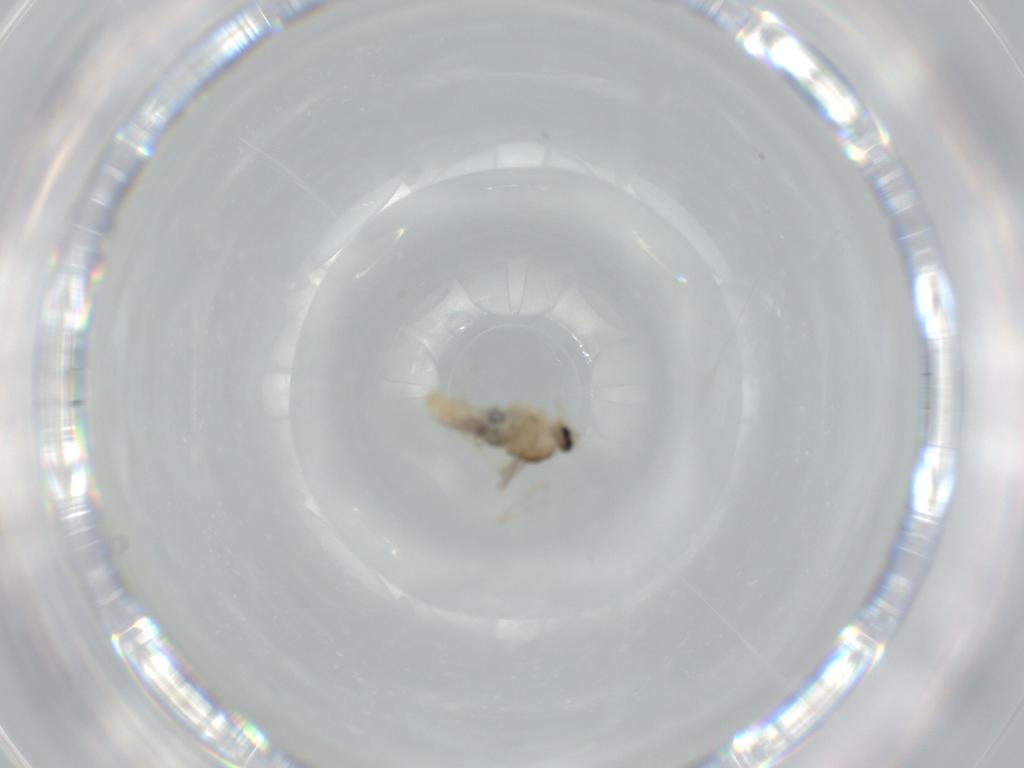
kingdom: Animalia
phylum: Arthropoda
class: Insecta
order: Diptera
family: Cecidomyiidae
